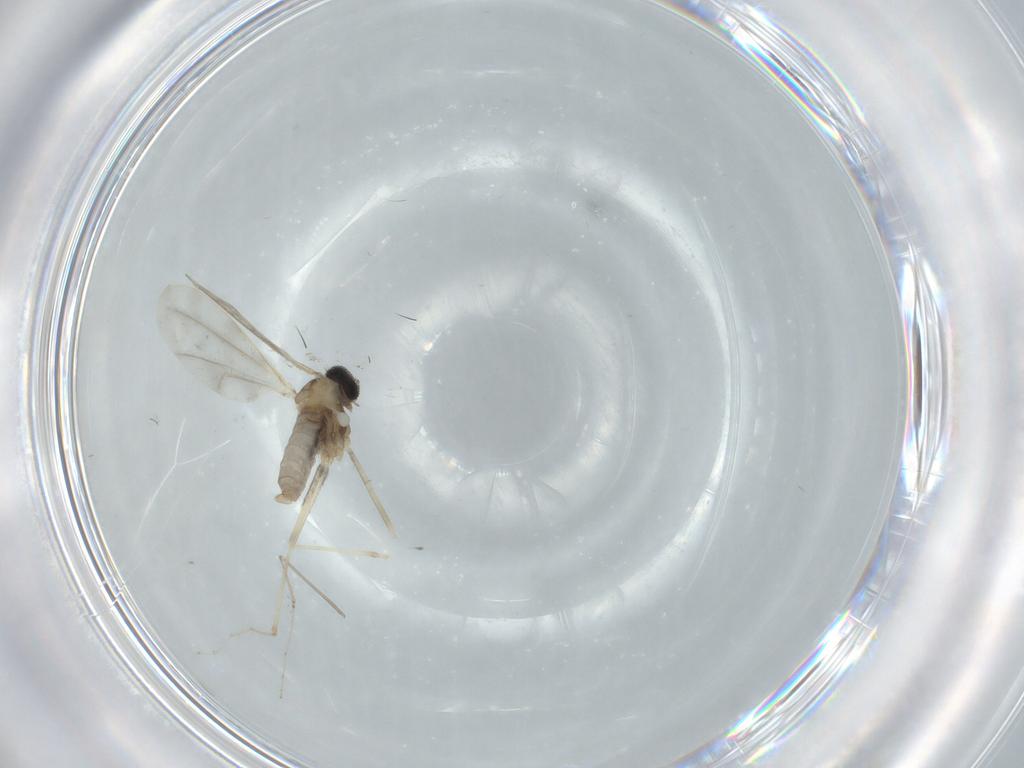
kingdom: Animalia
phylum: Arthropoda
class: Insecta
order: Diptera
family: Cecidomyiidae
